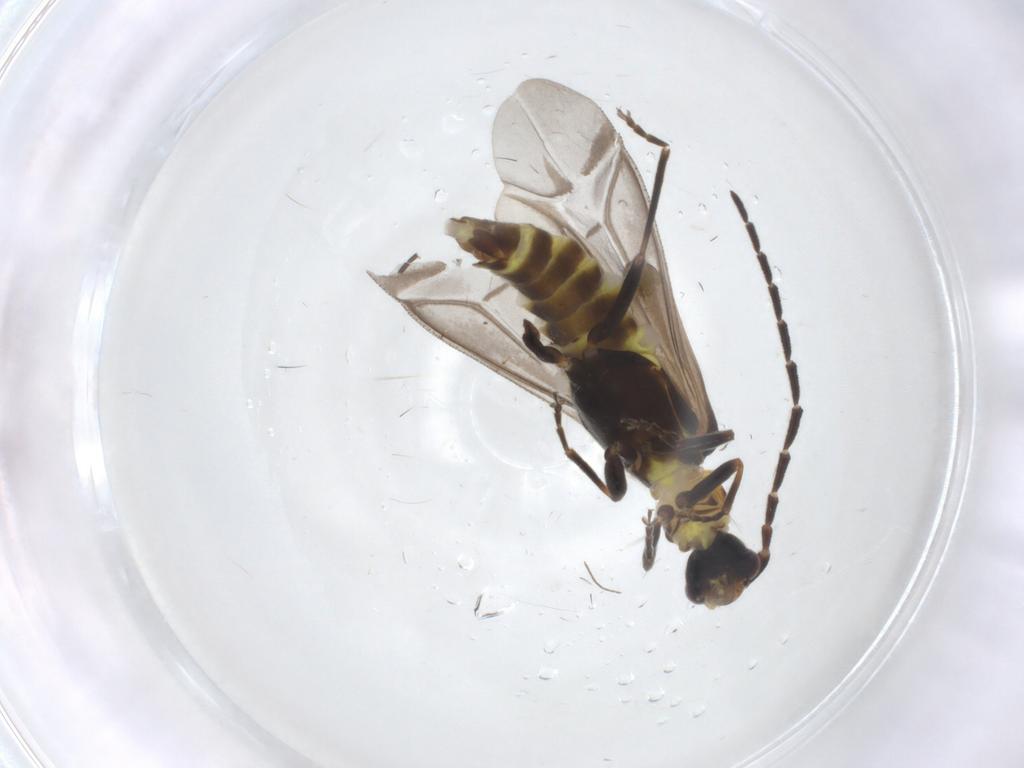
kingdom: Animalia
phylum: Arthropoda
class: Insecta
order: Coleoptera
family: Cantharidae
